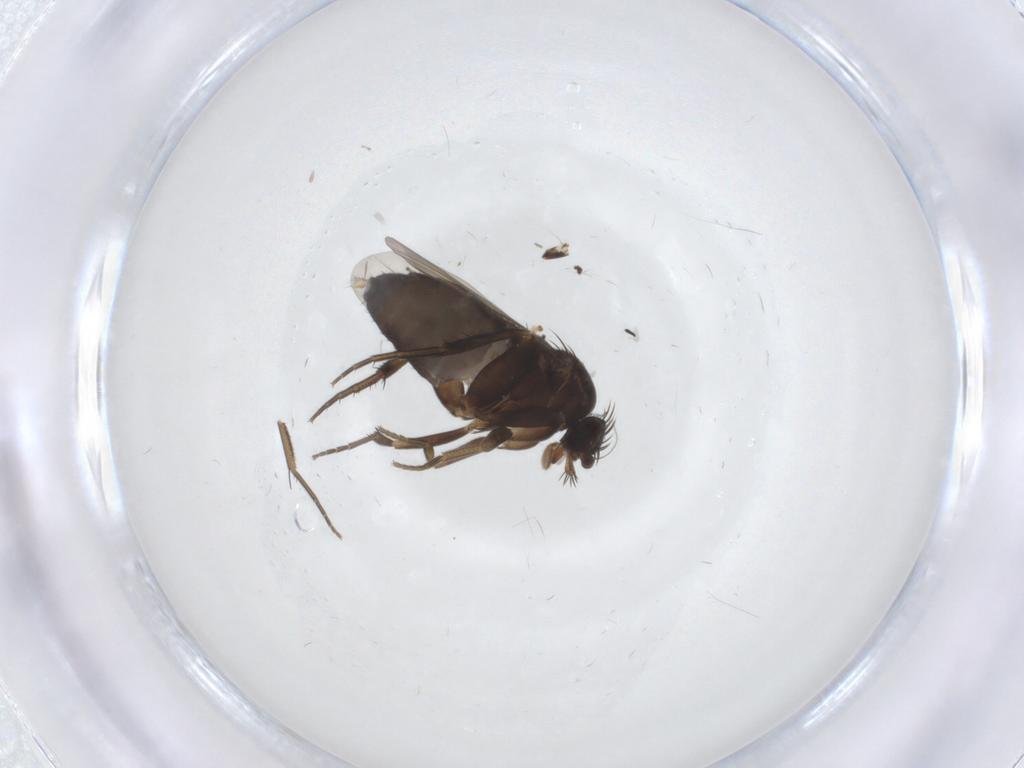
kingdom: Animalia
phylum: Arthropoda
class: Insecta
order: Diptera
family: Phoridae
